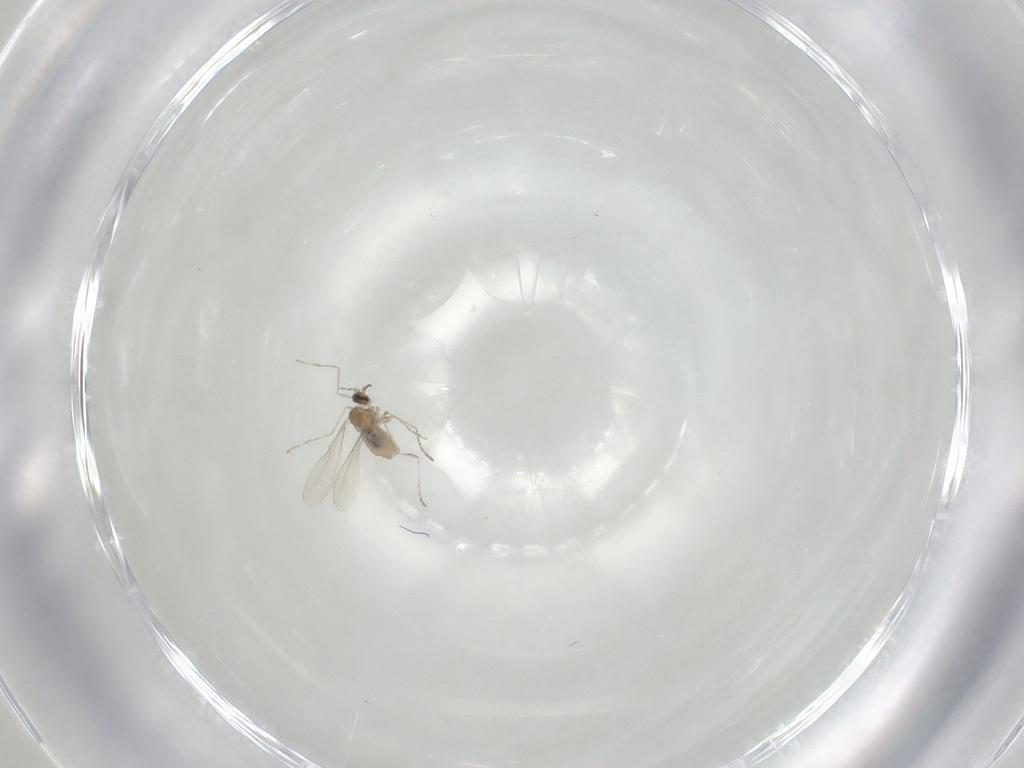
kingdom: Animalia
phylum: Arthropoda
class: Insecta
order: Diptera
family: Cecidomyiidae
